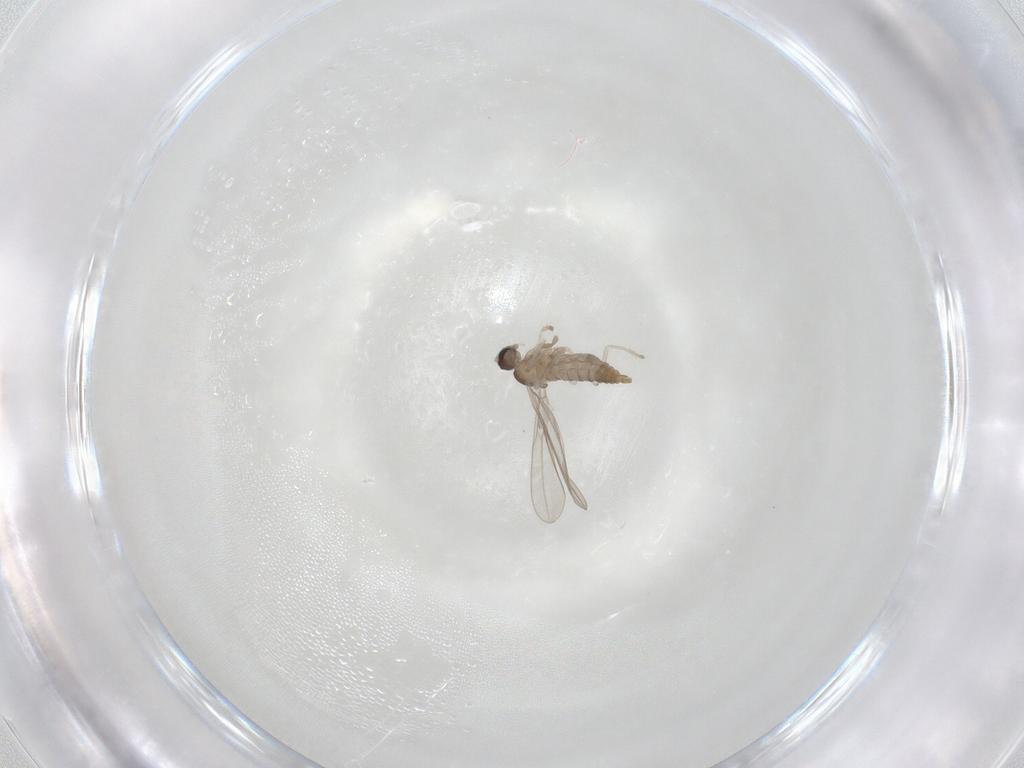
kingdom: Animalia
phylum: Arthropoda
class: Insecta
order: Diptera
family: Cecidomyiidae
